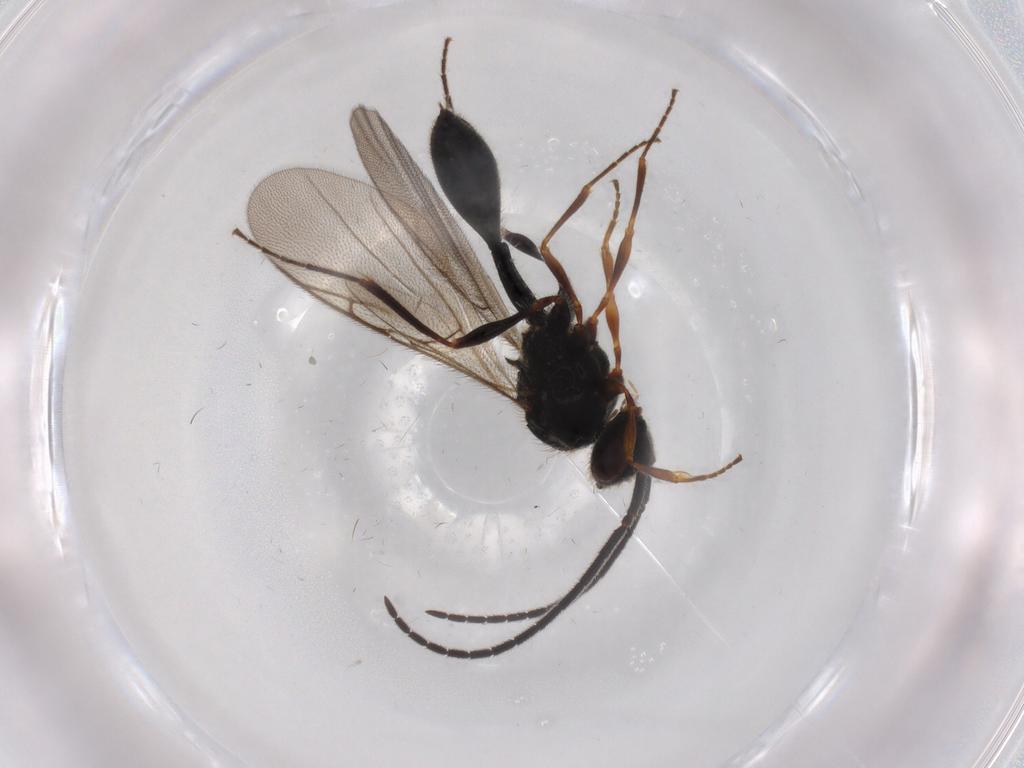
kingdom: Animalia
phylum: Arthropoda
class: Insecta
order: Hymenoptera
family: Diapriidae
